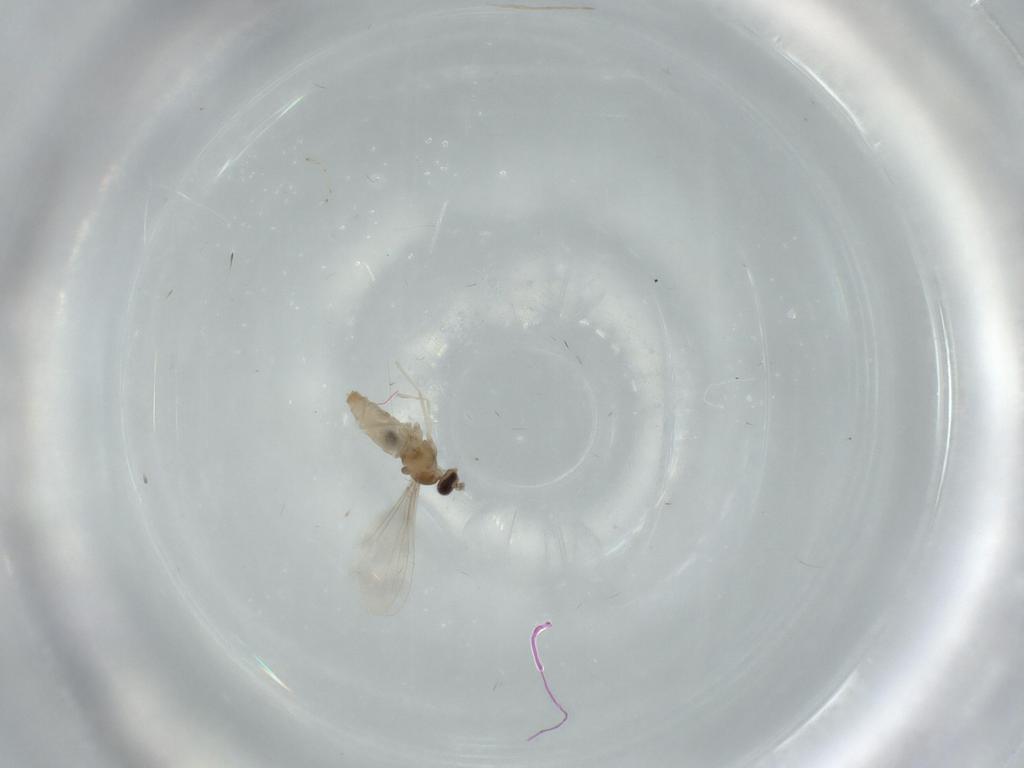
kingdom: Animalia
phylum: Arthropoda
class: Insecta
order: Diptera
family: Cecidomyiidae
